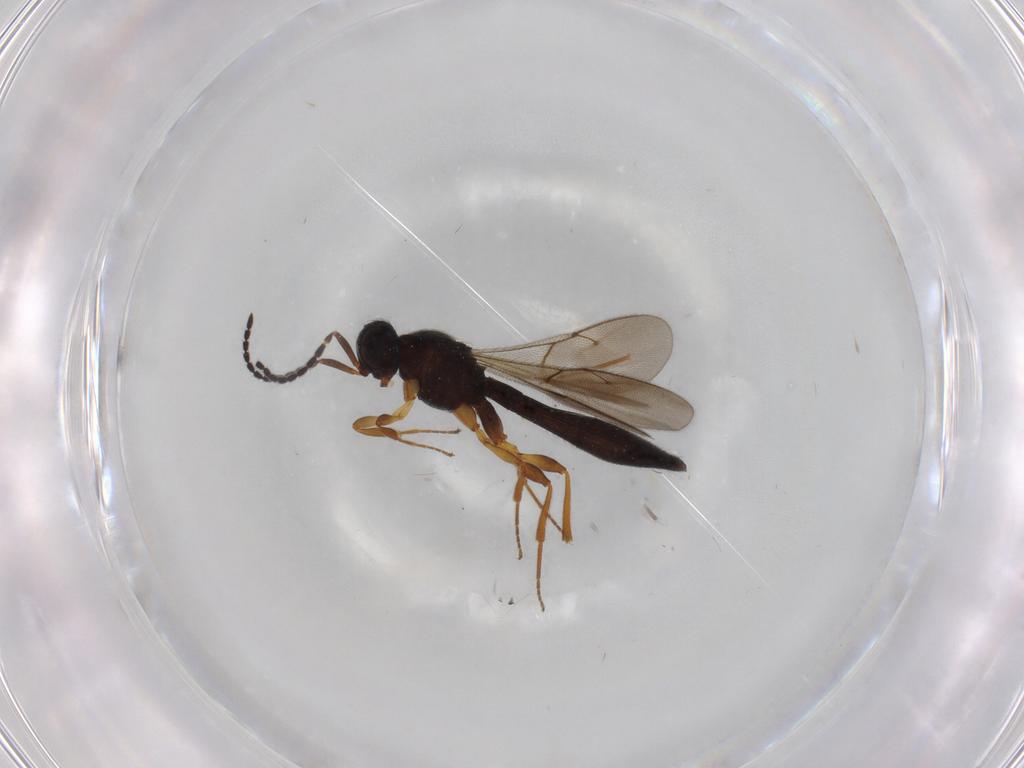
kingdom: Animalia
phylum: Arthropoda
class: Insecta
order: Hymenoptera
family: Scelionidae
